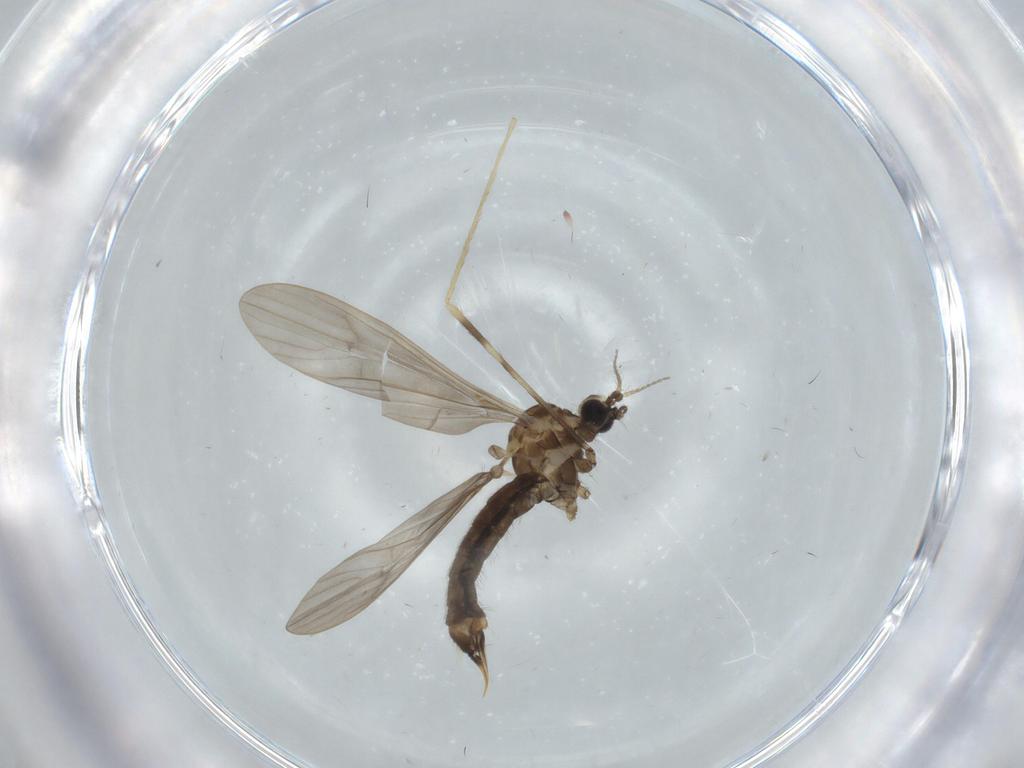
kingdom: Animalia
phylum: Arthropoda
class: Insecta
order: Diptera
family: Limoniidae
